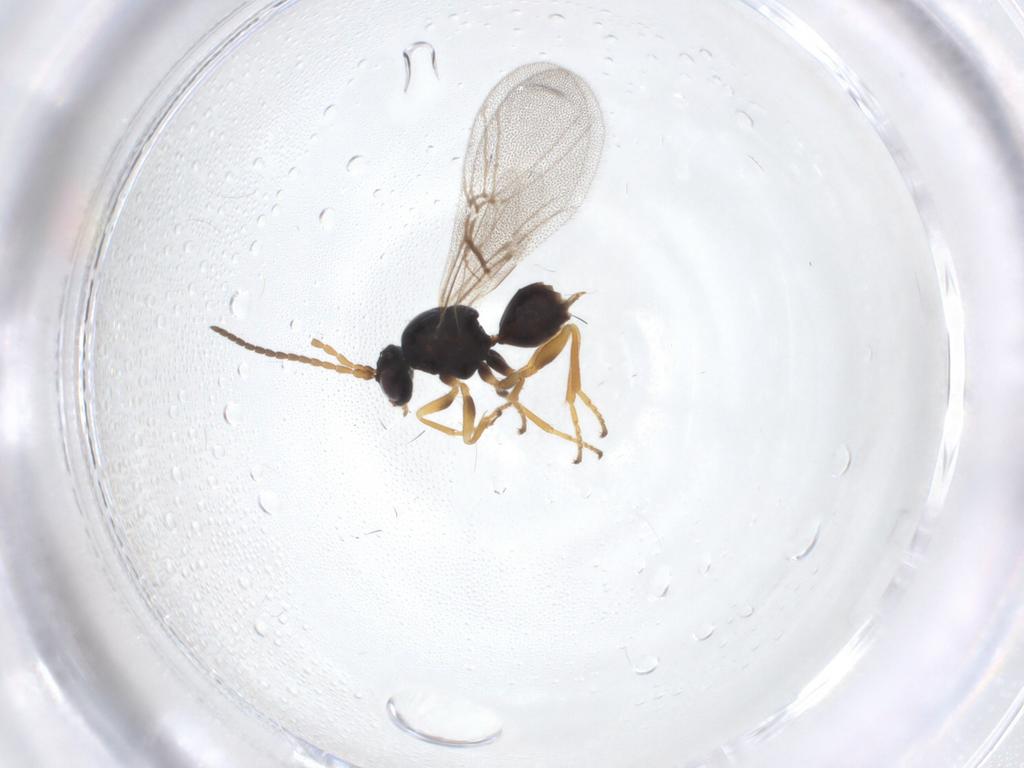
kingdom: Animalia
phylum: Arthropoda
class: Insecta
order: Hymenoptera
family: Cynipidae
